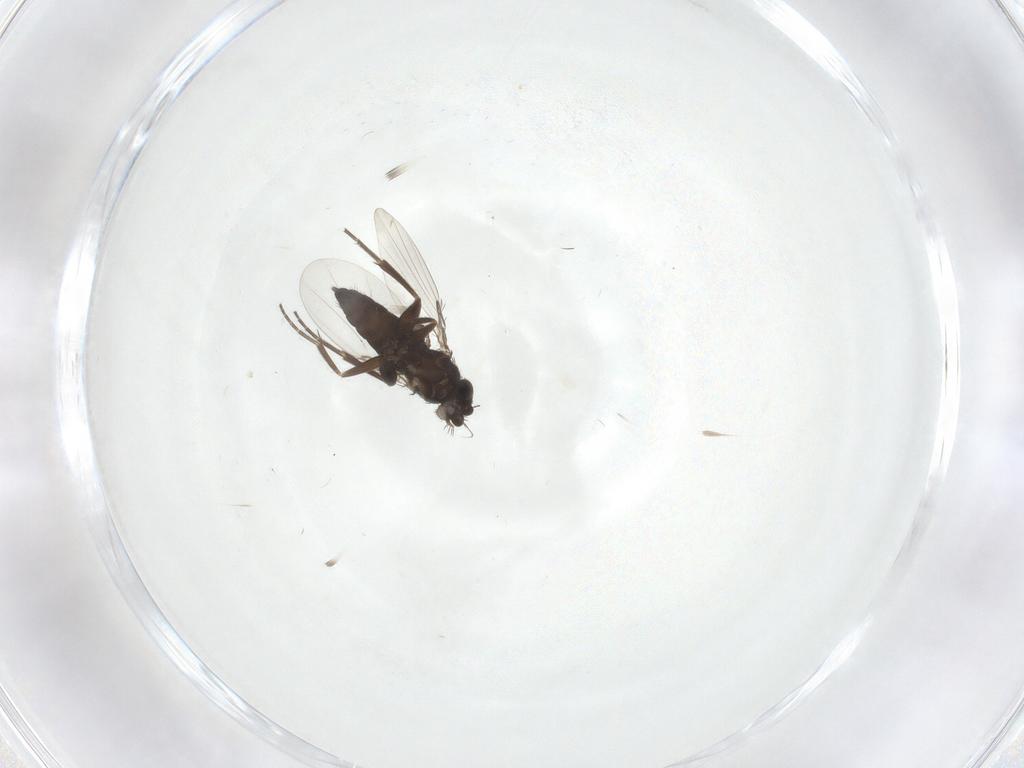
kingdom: Animalia
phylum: Arthropoda
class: Insecta
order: Diptera
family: Phoridae
